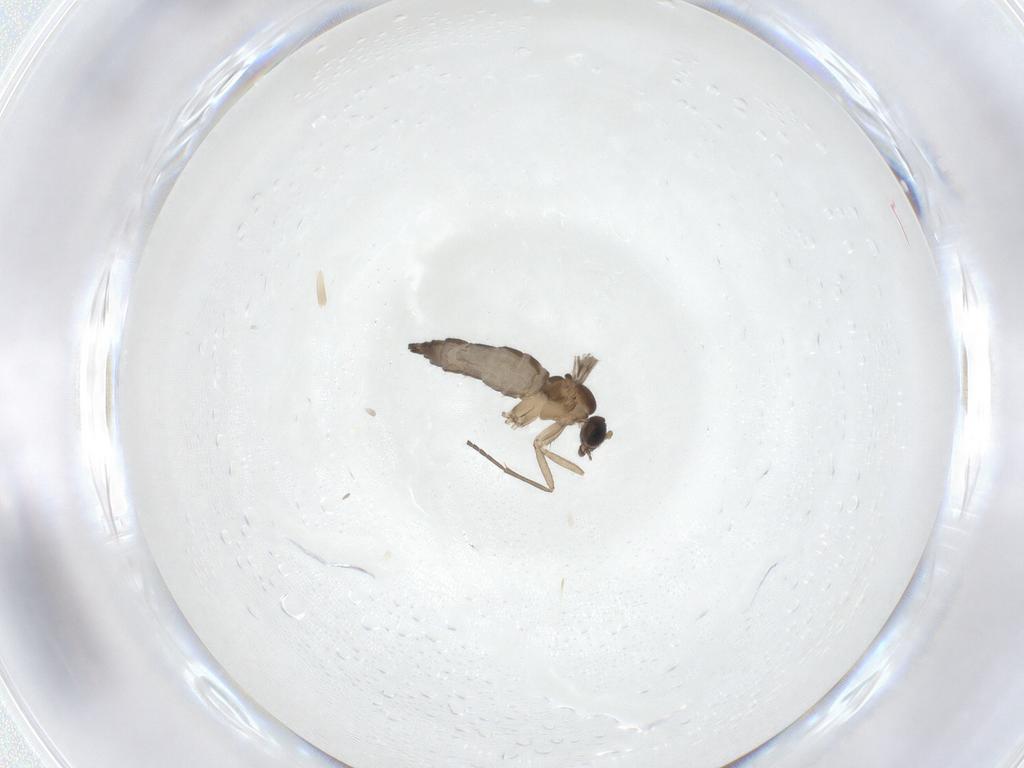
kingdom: Animalia
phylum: Arthropoda
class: Insecta
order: Diptera
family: Sciaridae
